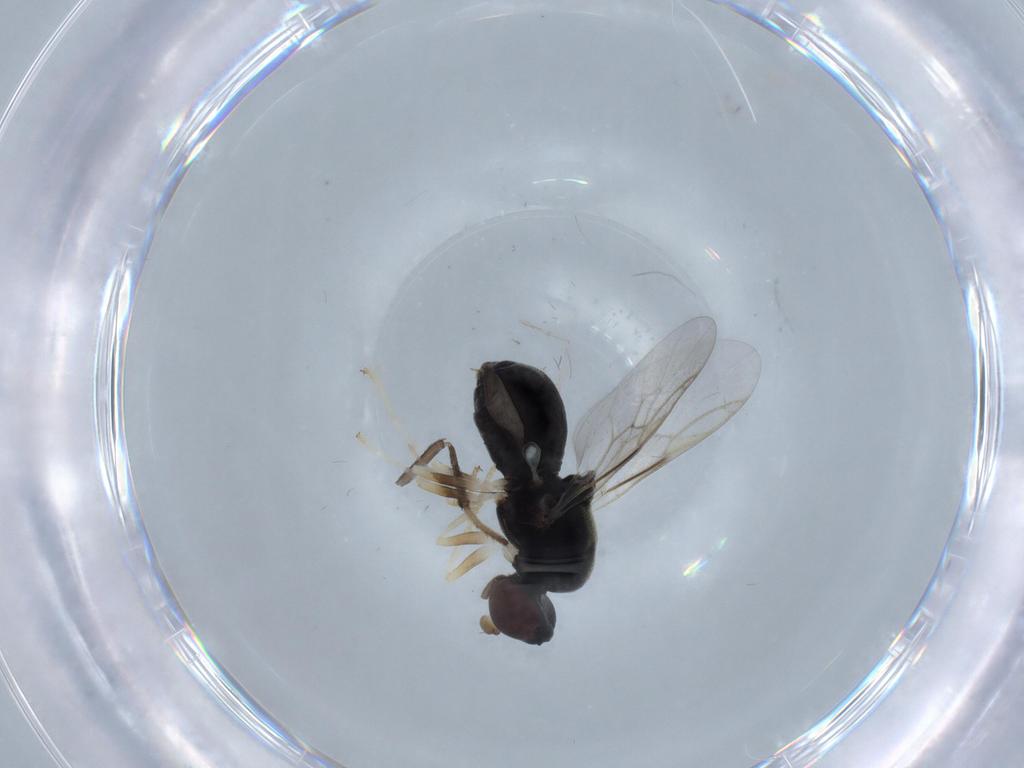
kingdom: Animalia
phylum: Arthropoda
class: Insecta
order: Diptera
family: Stratiomyidae
